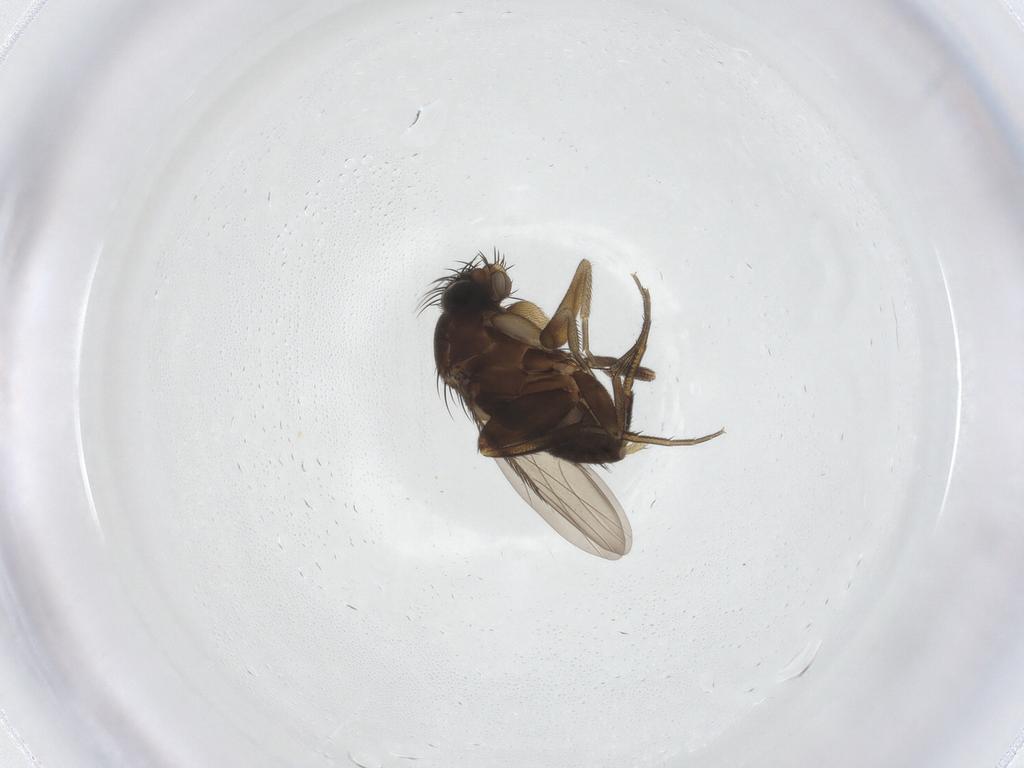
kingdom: Animalia
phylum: Arthropoda
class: Insecta
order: Diptera
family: Phoridae
